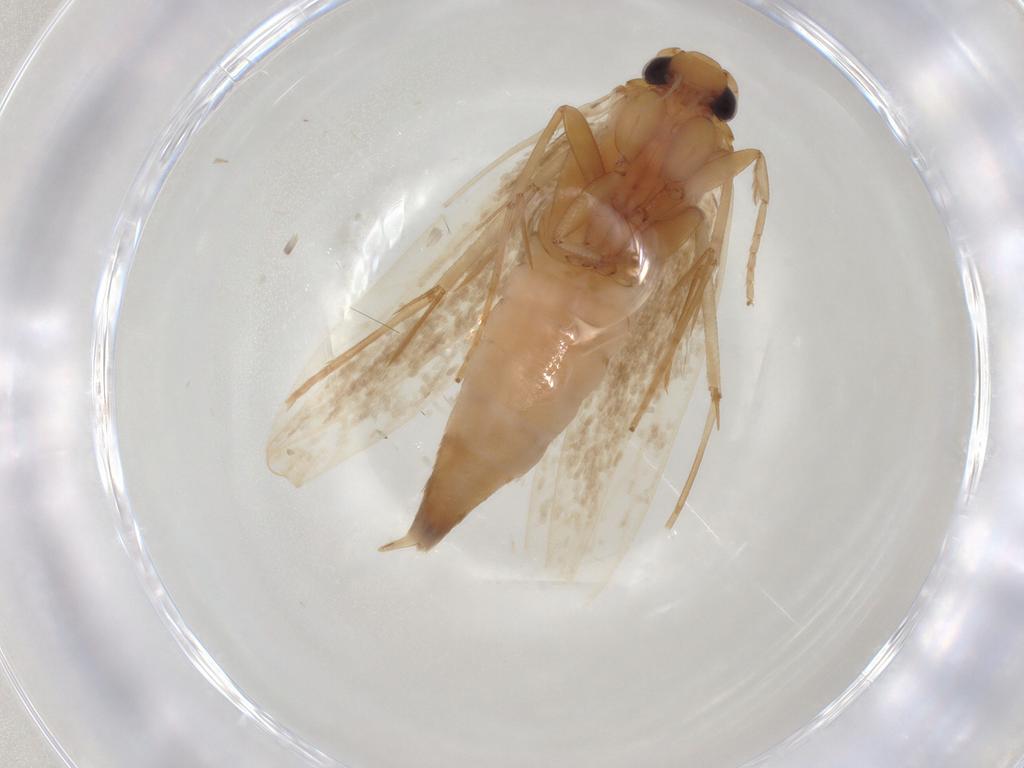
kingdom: Animalia
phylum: Arthropoda
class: Insecta
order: Lepidoptera
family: Tineidae
